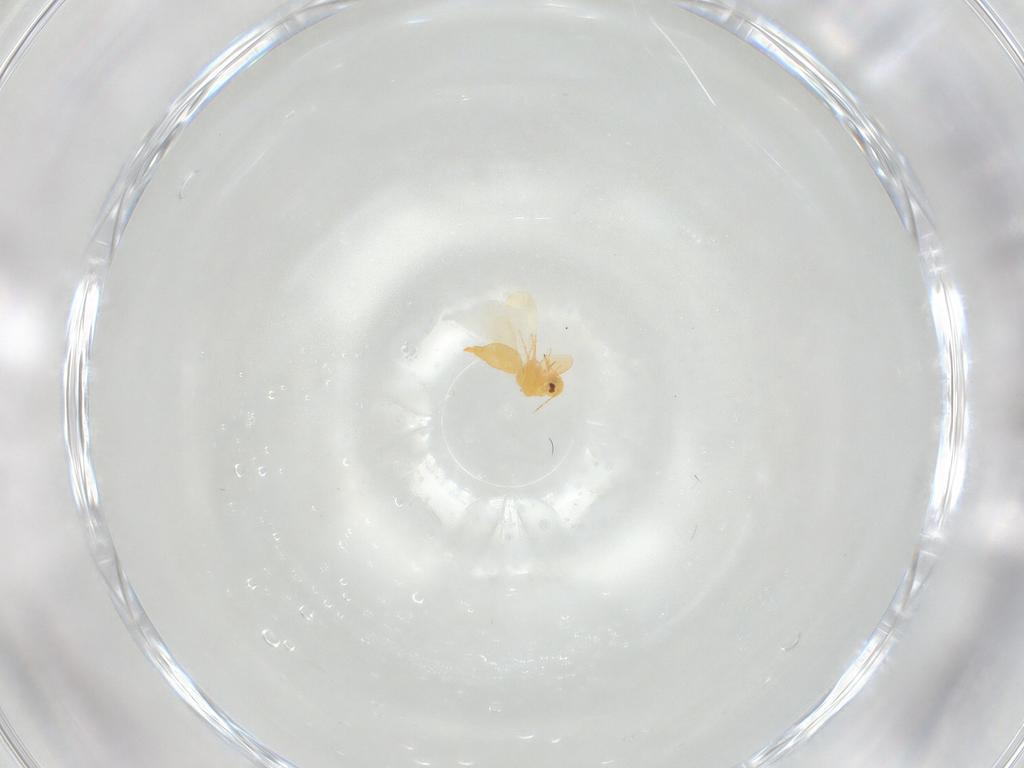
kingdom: Animalia
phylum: Arthropoda
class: Insecta
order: Hemiptera
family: Aleyrodidae
